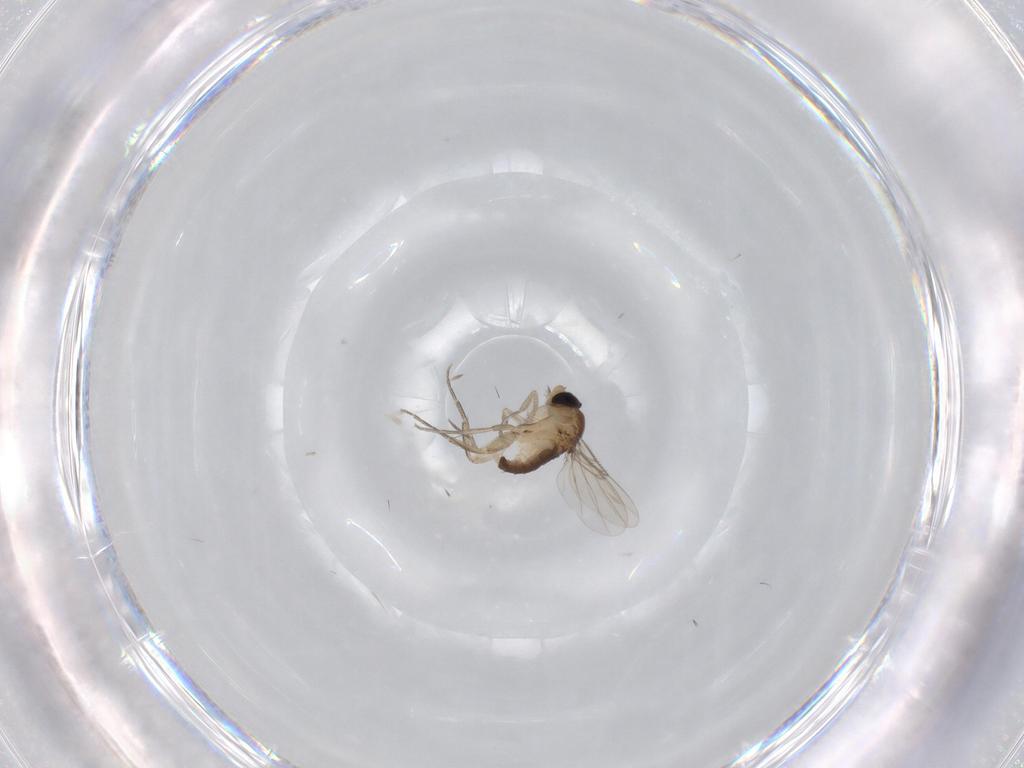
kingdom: Animalia
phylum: Arthropoda
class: Insecta
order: Diptera
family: Phoridae
